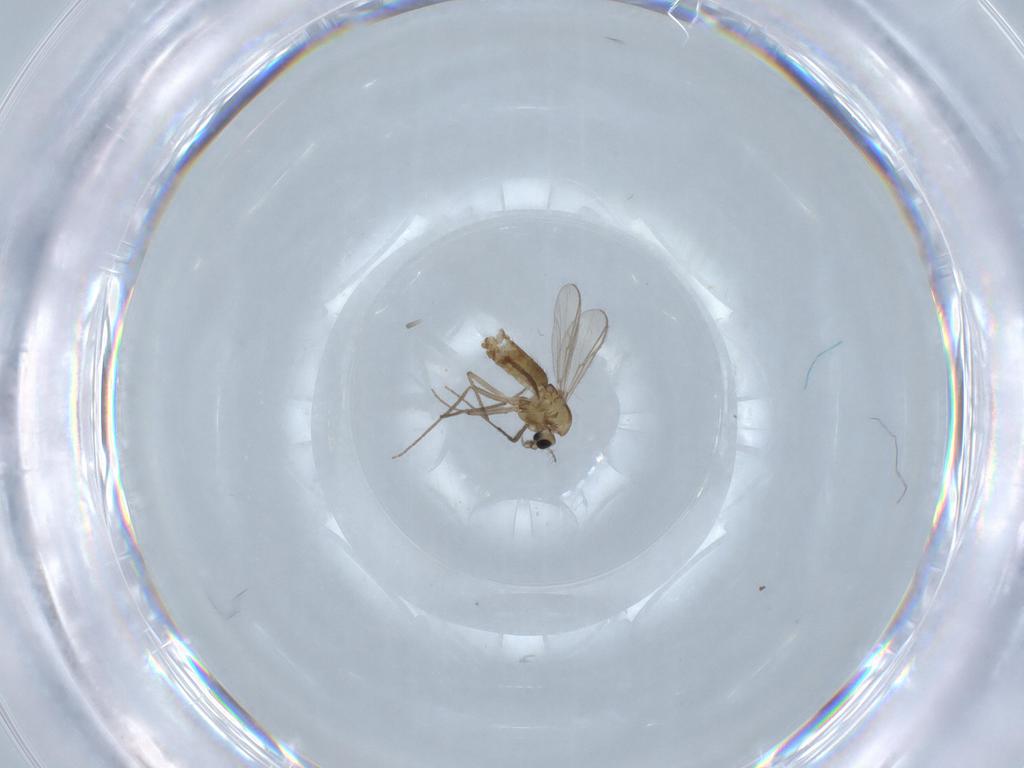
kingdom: Animalia
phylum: Arthropoda
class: Insecta
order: Diptera
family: Chironomidae
